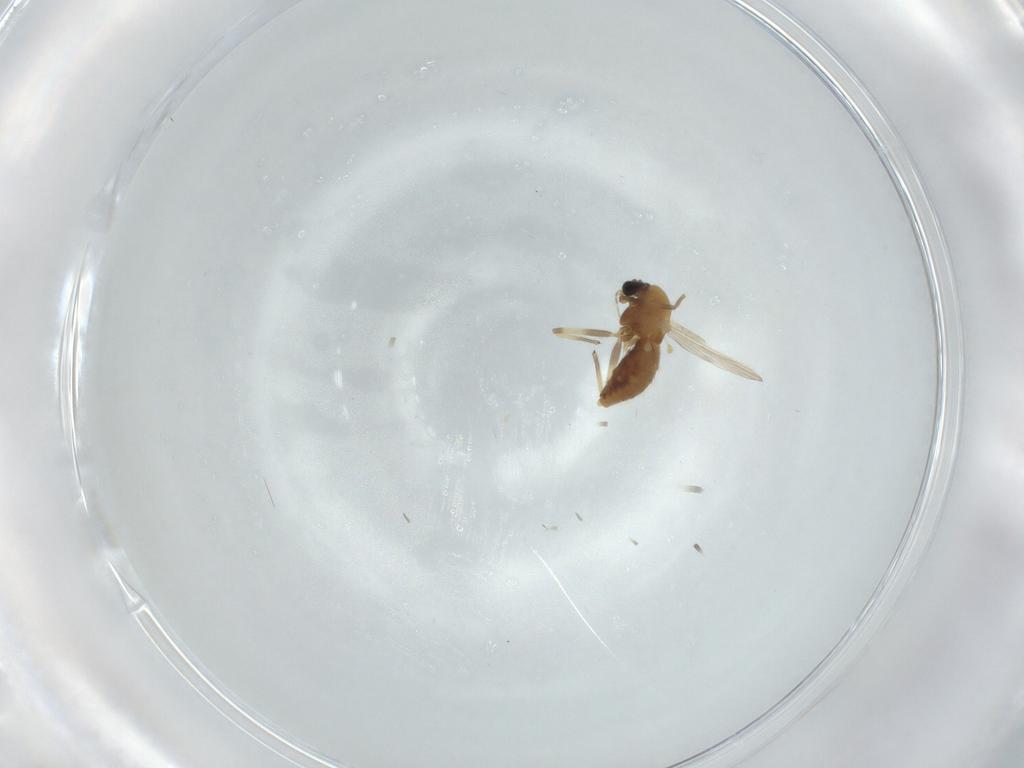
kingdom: Animalia
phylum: Arthropoda
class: Insecta
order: Diptera
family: Chironomidae
